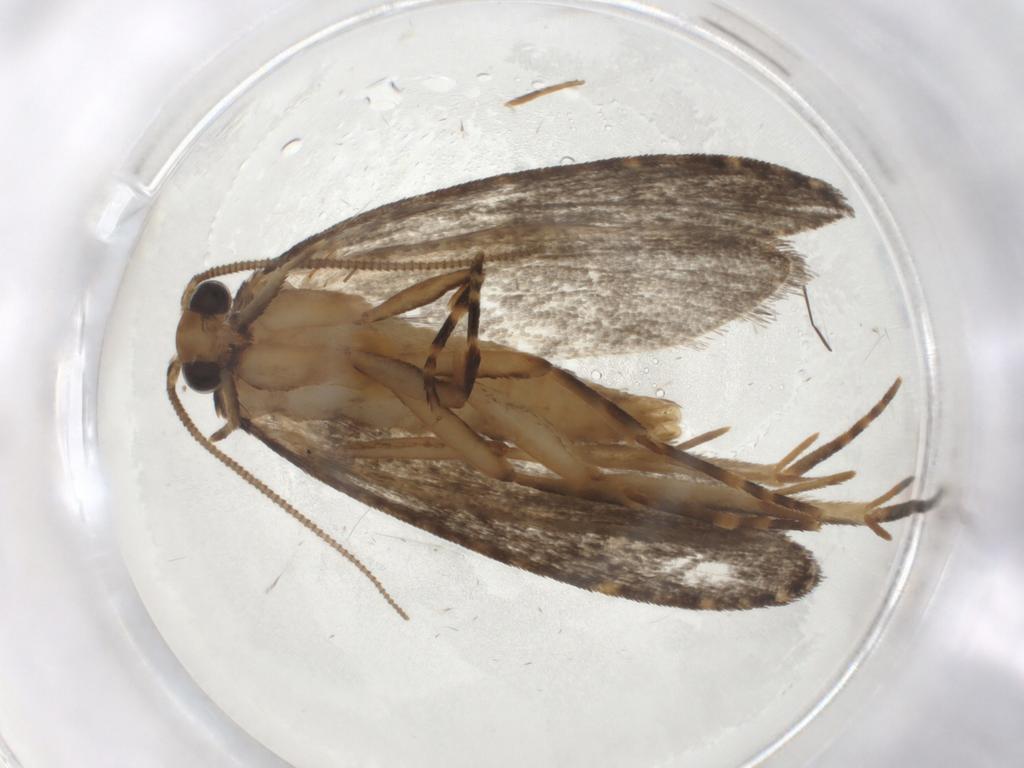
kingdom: Animalia
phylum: Arthropoda
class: Insecta
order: Lepidoptera
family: Tineidae
